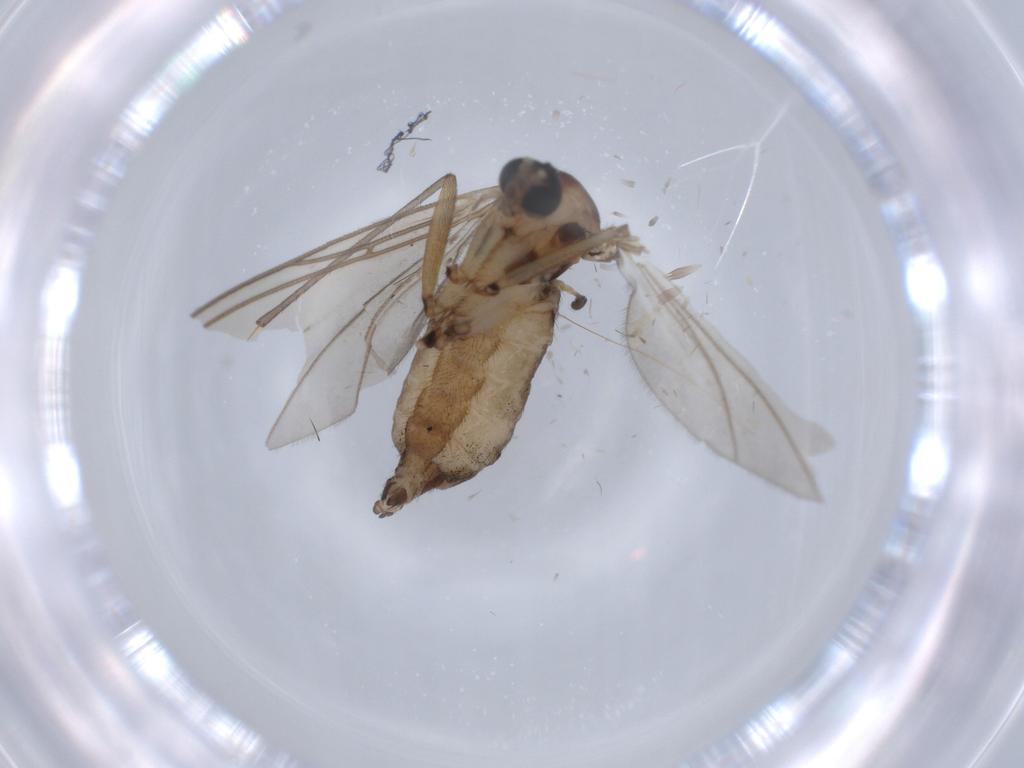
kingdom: Animalia
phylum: Arthropoda
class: Insecta
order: Diptera
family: Sciaridae
